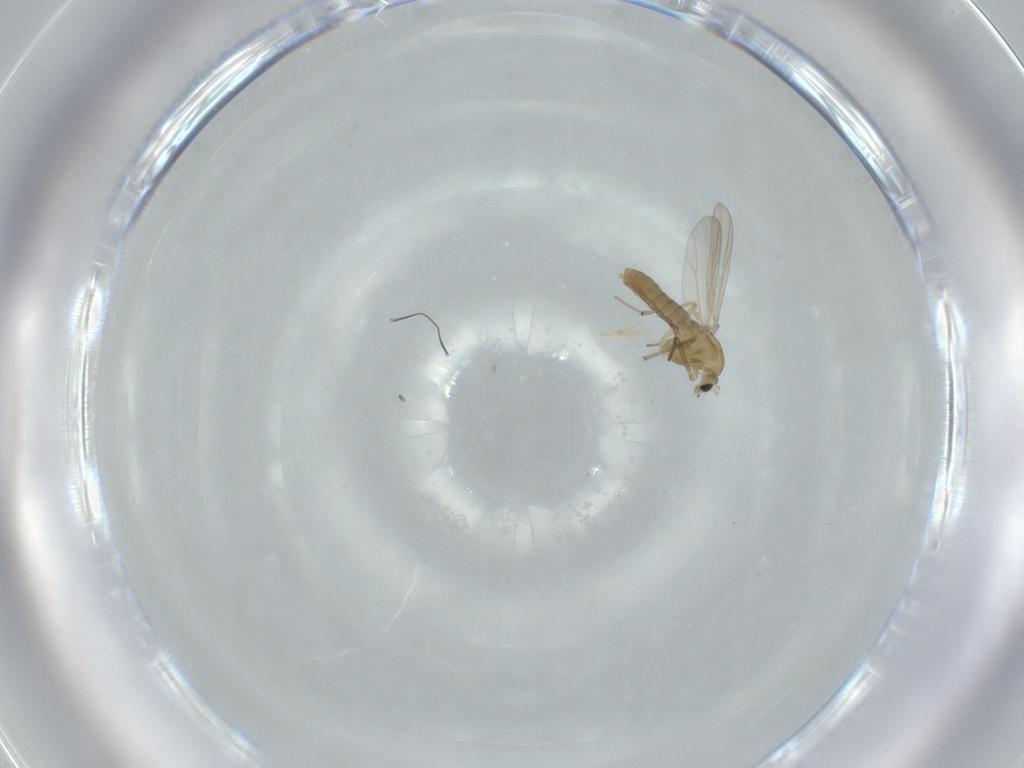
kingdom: Animalia
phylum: Arthropoda
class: Insecta
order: Diptera
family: Chironomidae
